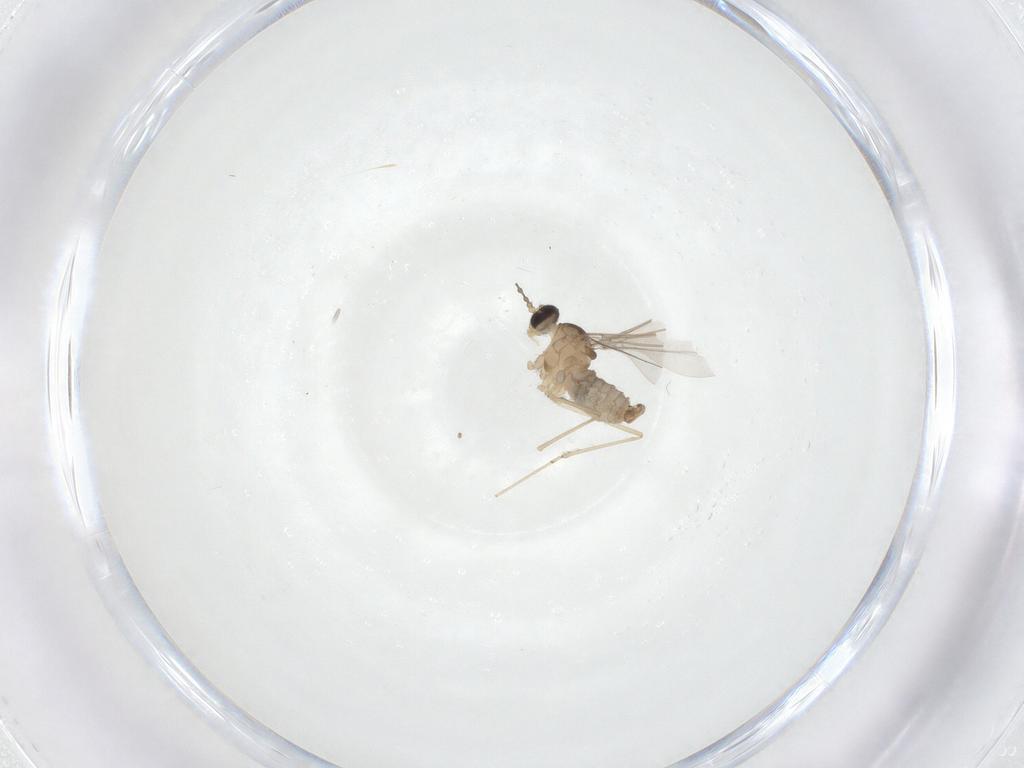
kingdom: Animalia
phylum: Arthropoda
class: Insecta
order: Diptera
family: Cecidomyiidae
